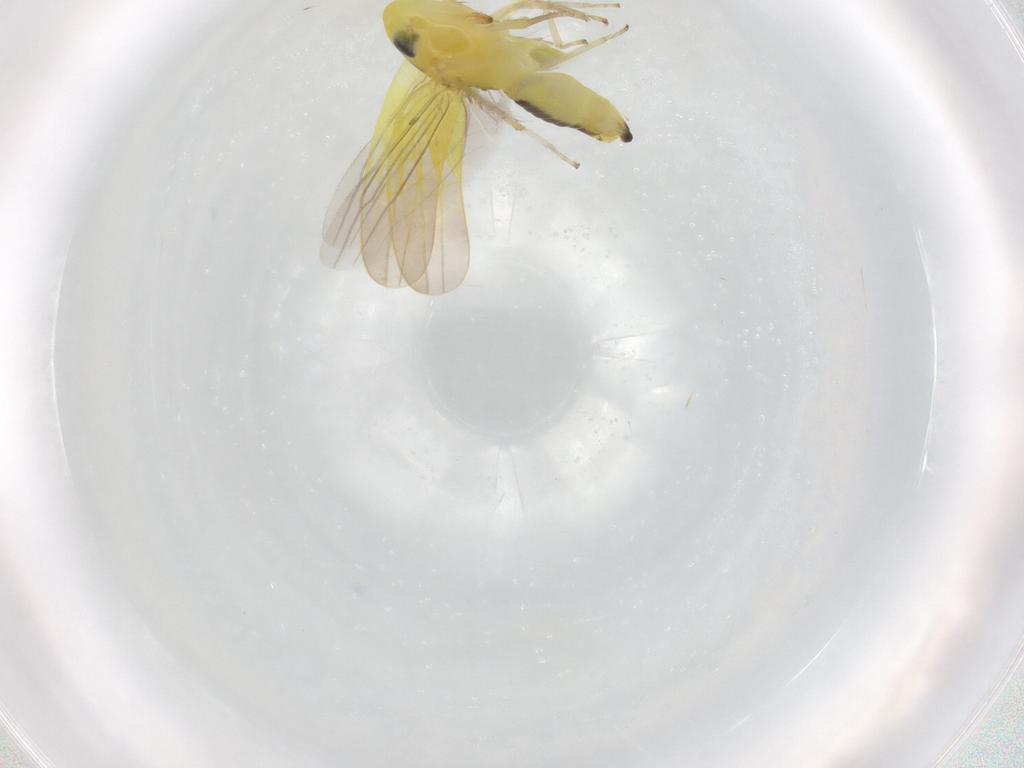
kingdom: Animalia
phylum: Arthropoda
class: Insecta
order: Hemiptera
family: Cicadellidae
